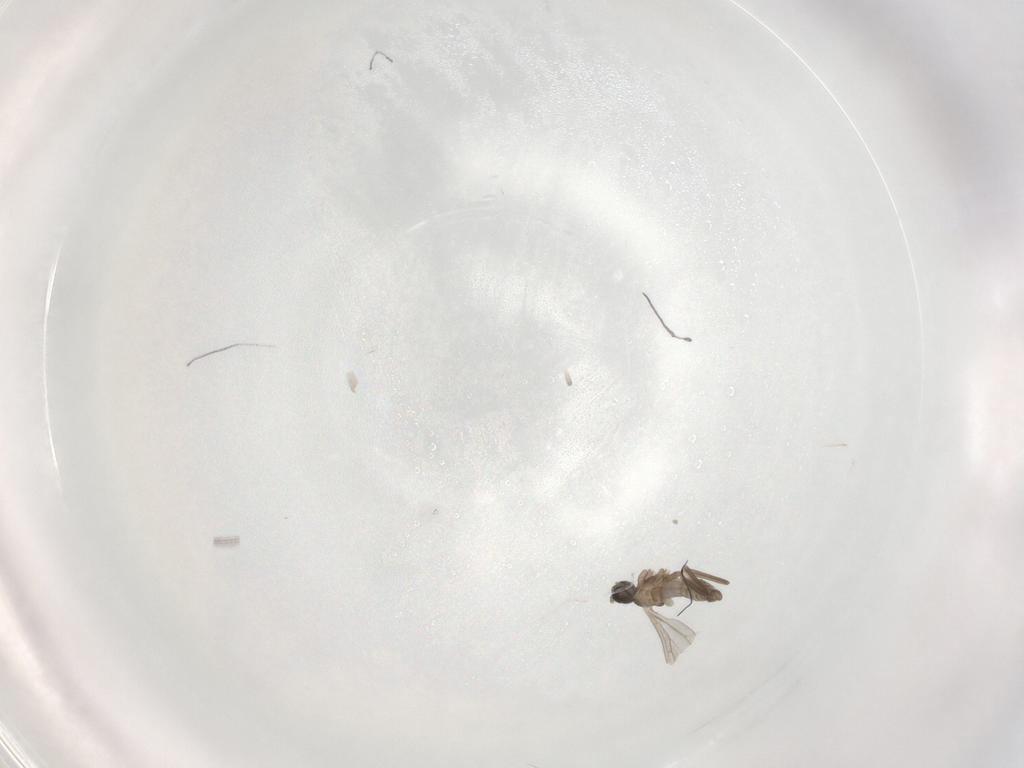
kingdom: Animalia
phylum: Arthropoda
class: Insecta
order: Diptera
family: Cecidomyiidae
